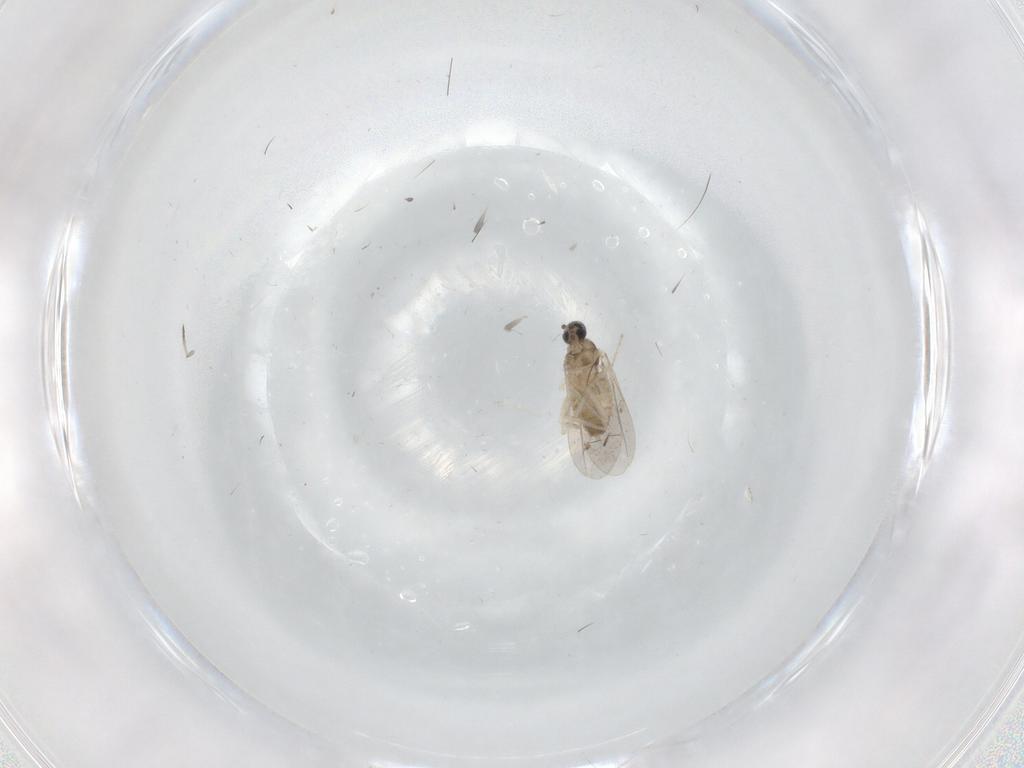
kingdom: Animalia
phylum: Arthropoda
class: Insecta
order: Diptera
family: Cecidomyiidae
